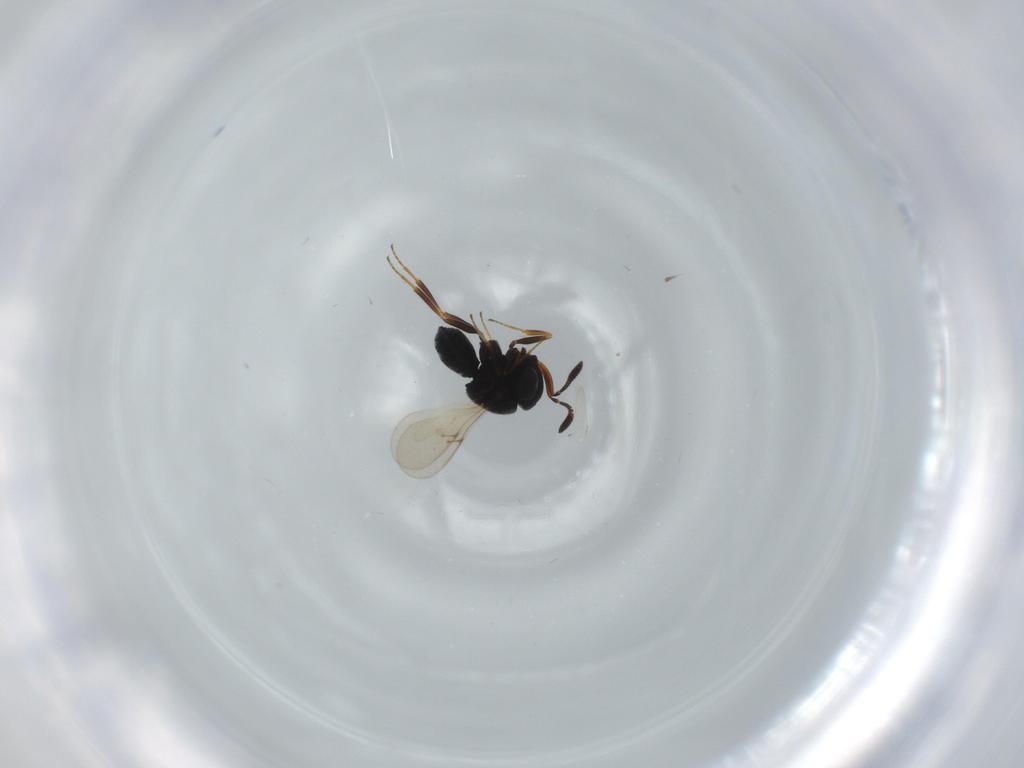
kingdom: Animalia
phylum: Arthropoda
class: Insecta
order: Hymenoptera
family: Scelionidae
